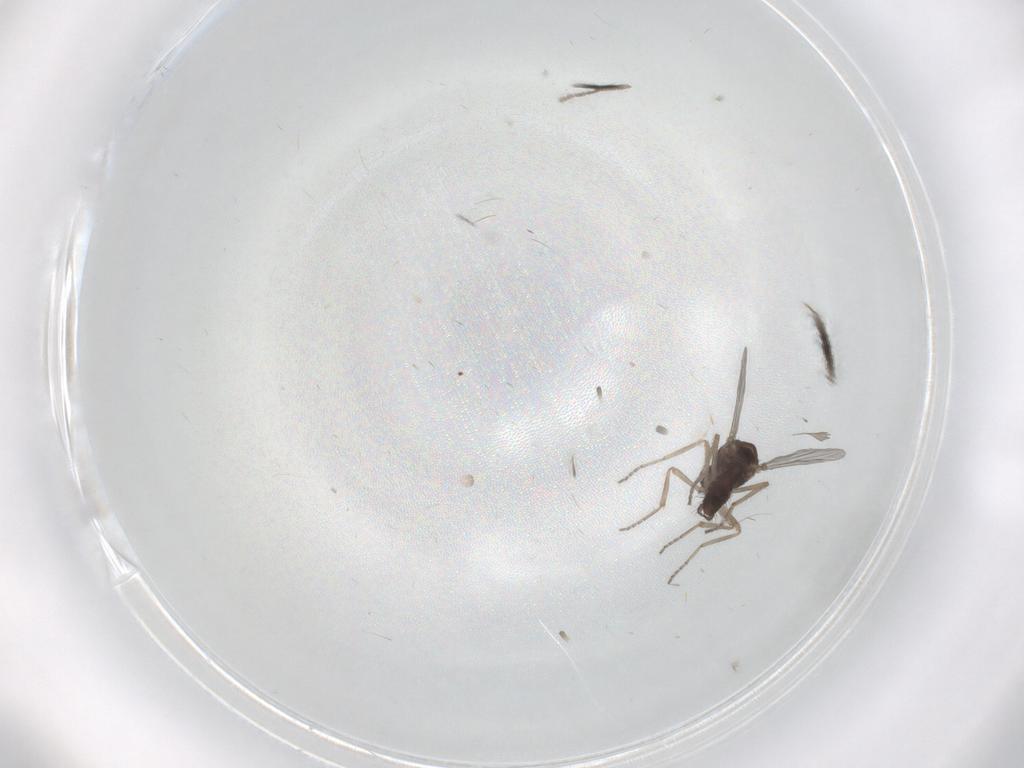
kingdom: Animalia
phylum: Arthropoda
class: Insecta
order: Diptera
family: Ceratopogonidae
